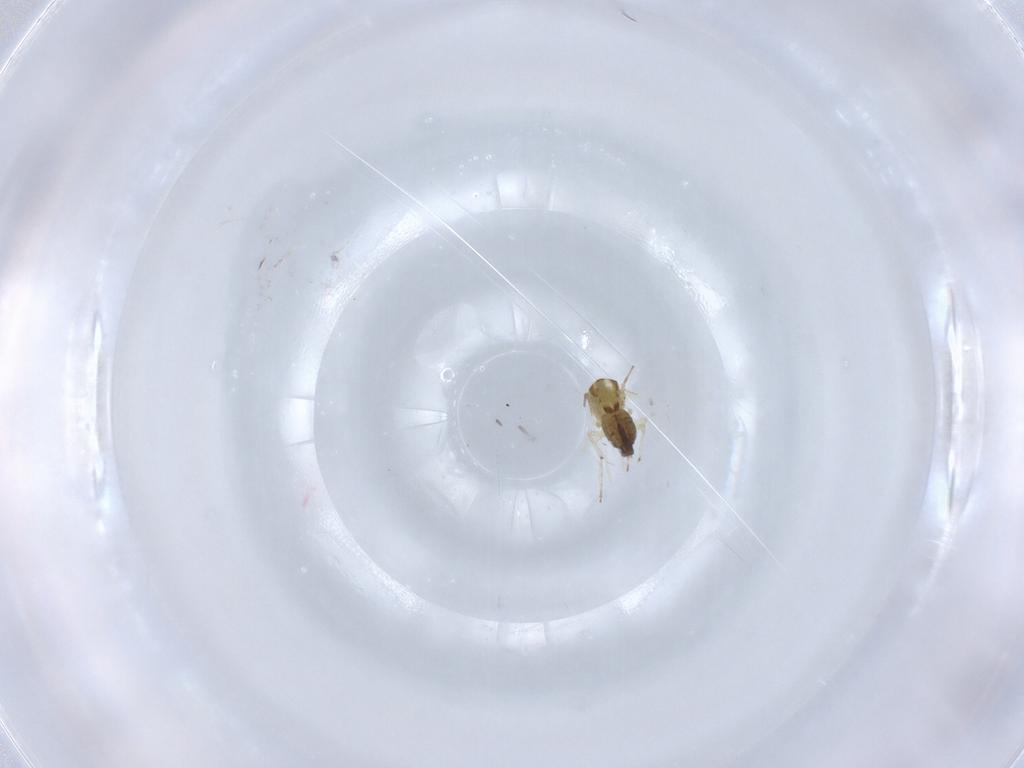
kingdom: Animalia
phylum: Arthropoda
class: Insecta
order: Diptera
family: Chironomidae
